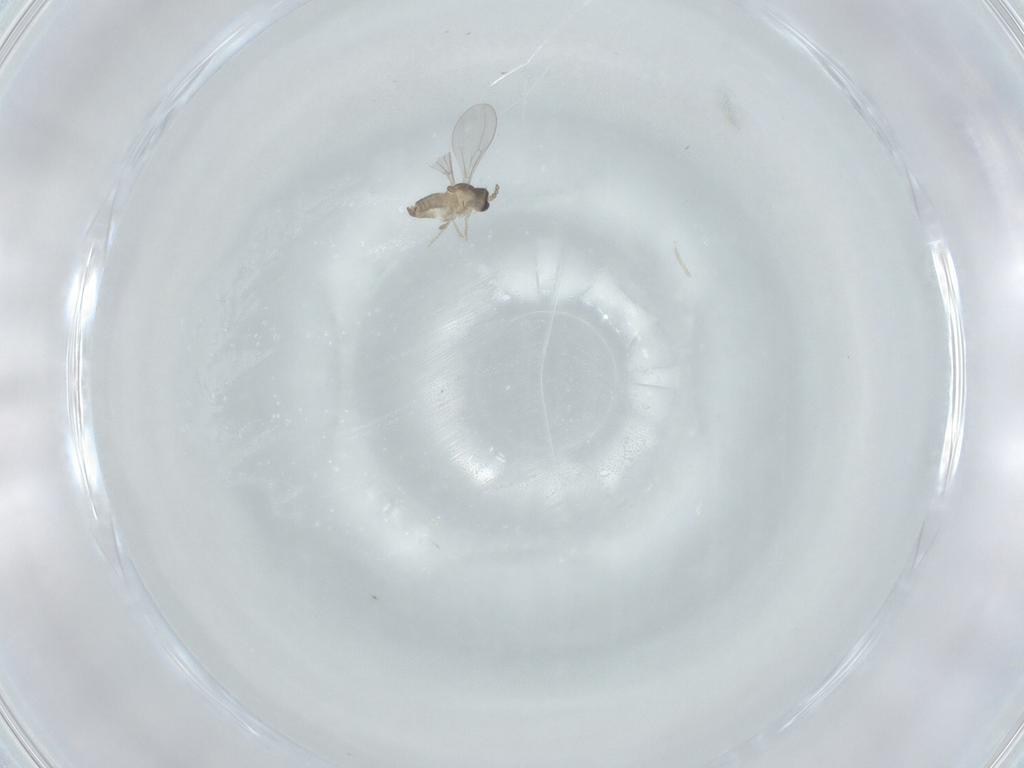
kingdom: Animalia
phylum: Arthropoda
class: Insecta
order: Diptera
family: Cecidomyiidae
